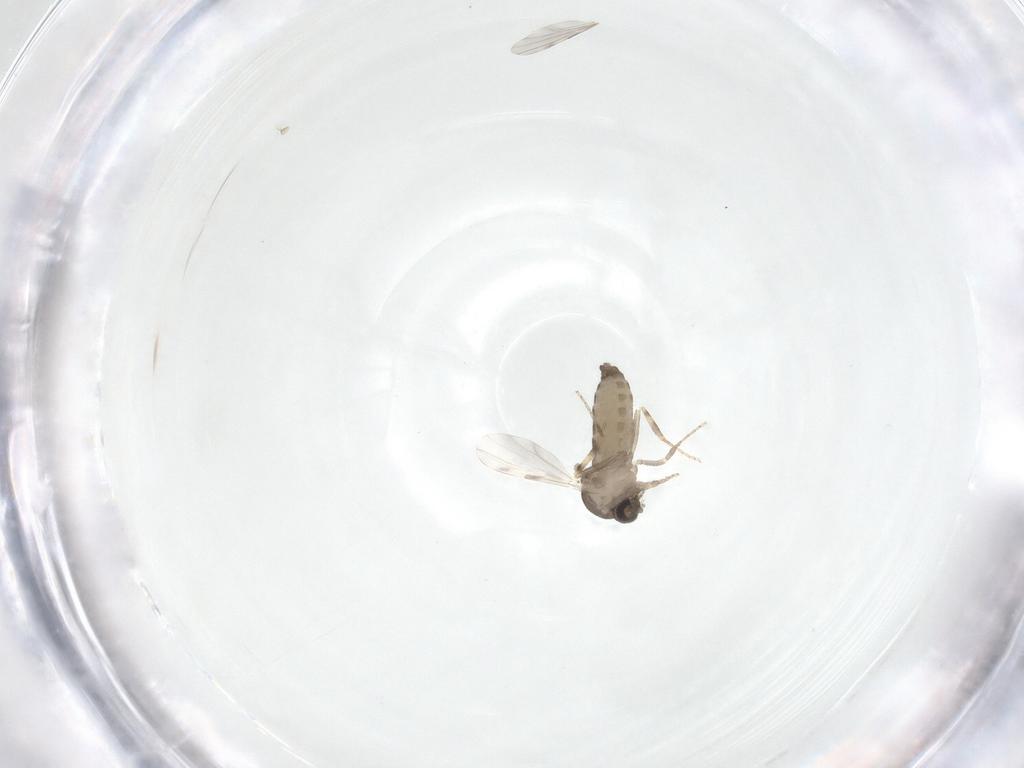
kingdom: Animalia
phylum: Arthropoda
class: Insecta
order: Diptera
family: Ceratopogonidae
